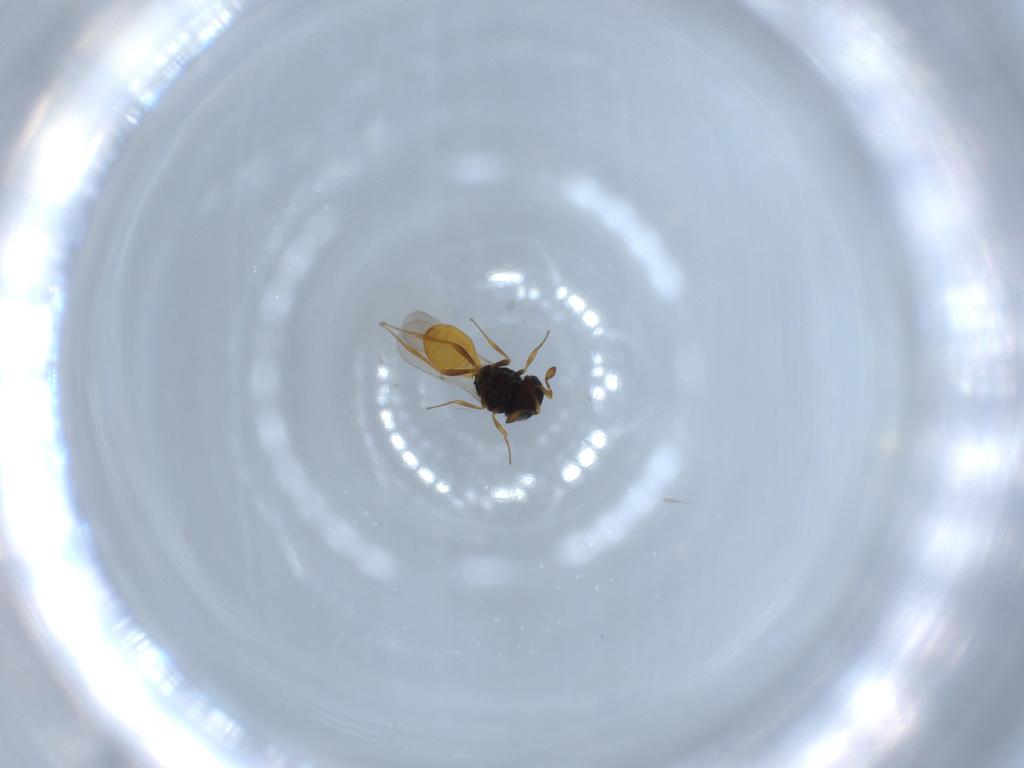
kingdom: Animalia
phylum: Arthropoda
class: Insecta
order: Hymenoptera
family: Scelionidae
